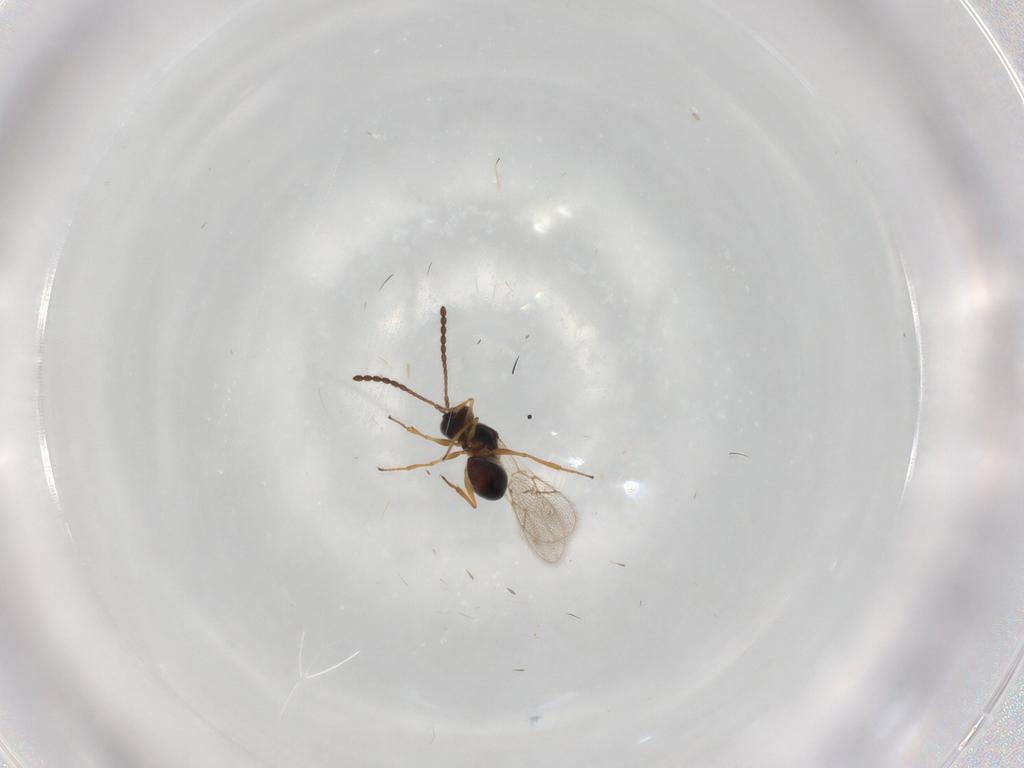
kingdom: Animalia
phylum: Arthropoda
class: Insecta
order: Hymenoptera
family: Figitidae
